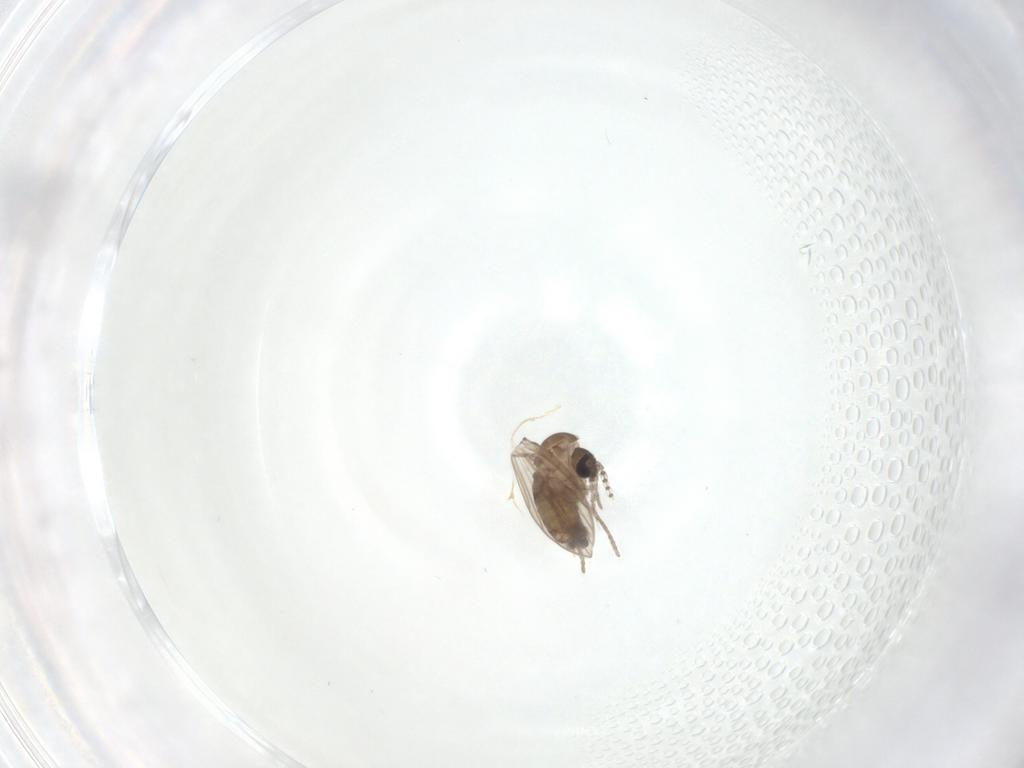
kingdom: Animalia
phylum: Arthropoda
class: Insecta
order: Diptera
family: Psychodidae
